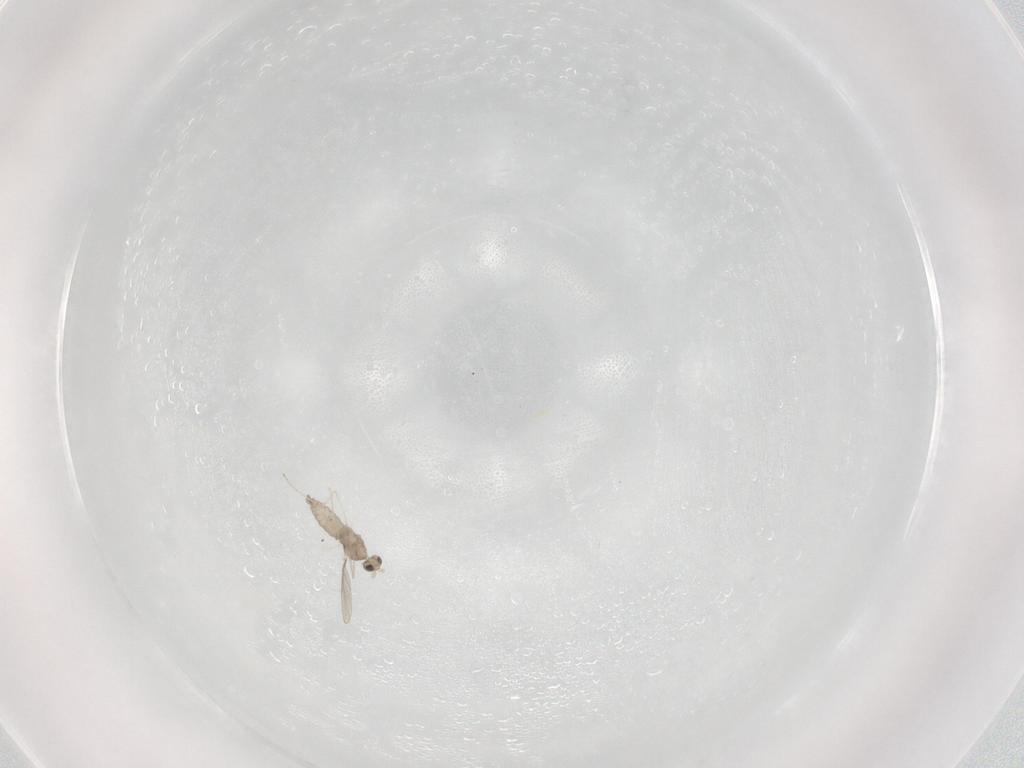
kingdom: Animalia
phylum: Arthropoda
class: Insecta
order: Diptera
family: Cecidomyiidae
